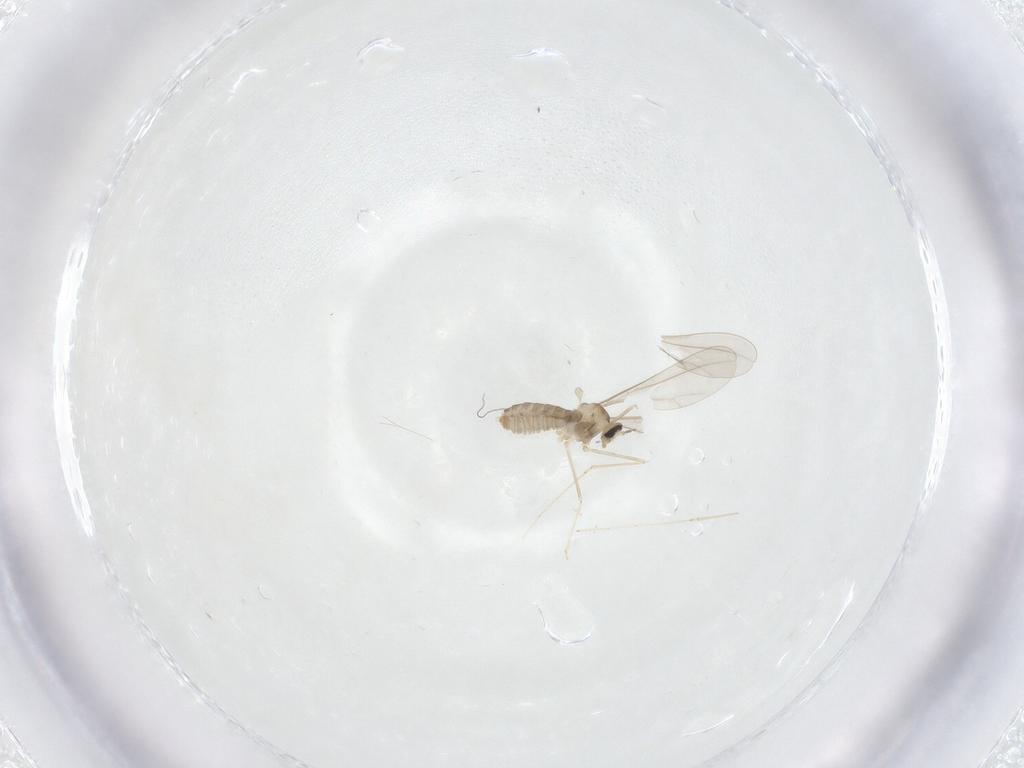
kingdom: Animalia
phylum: Arthropoda
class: Insecta
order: Diptera
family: Cecidomyiidae
